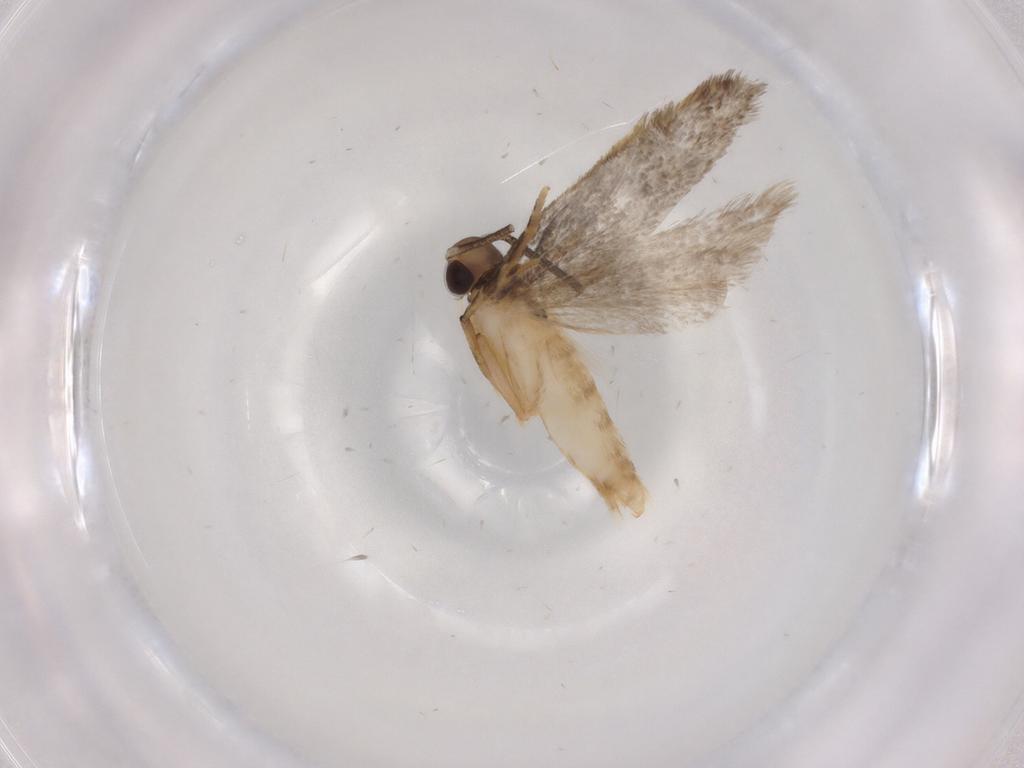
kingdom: Animalia
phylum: Arthropoda
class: Insecta
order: Lepidoptera
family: Autostichidae
